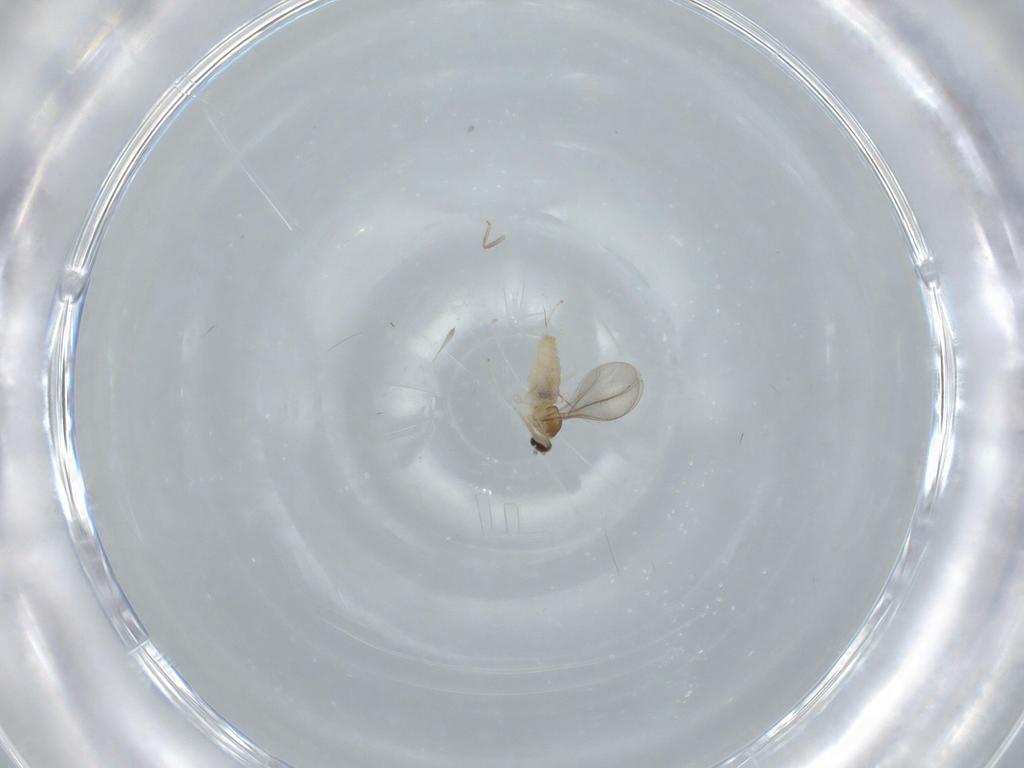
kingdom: Animalia
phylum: Arthropoda
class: Insecta
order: Diptera
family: Cecidomyiidae
